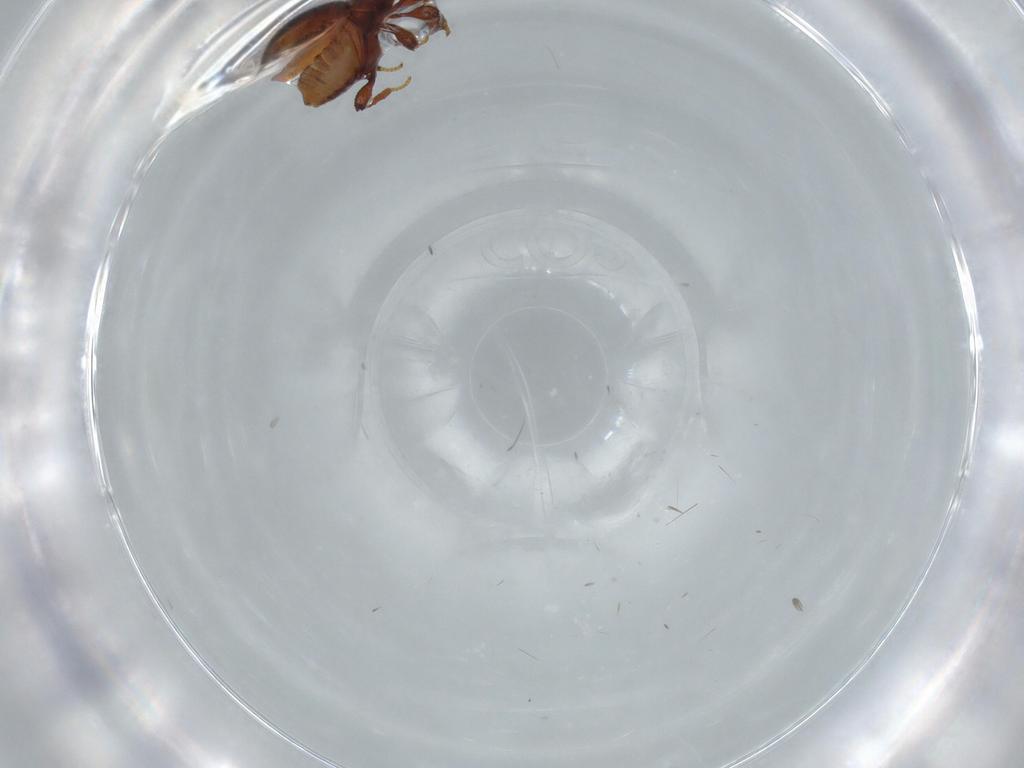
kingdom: Animalia
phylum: Arthropoda
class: Insecta
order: Coleoptera
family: Staphylinidae
